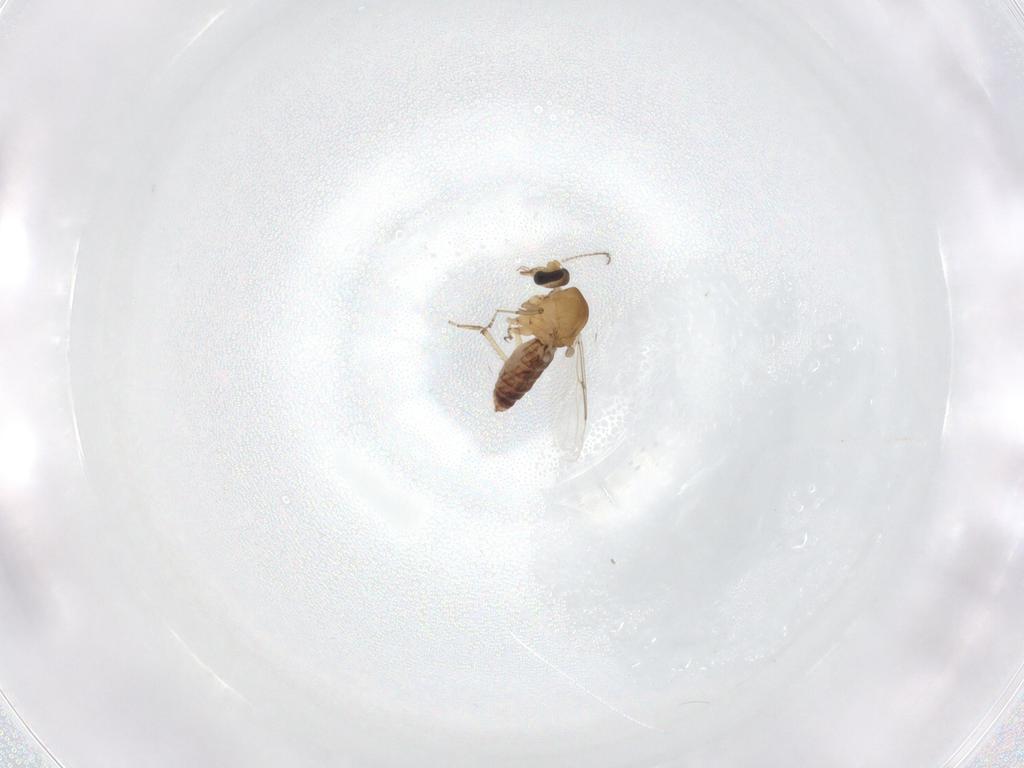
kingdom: Animalia
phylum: Arthropoda
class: Insecta
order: Diptera
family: Ceratopogonidae
